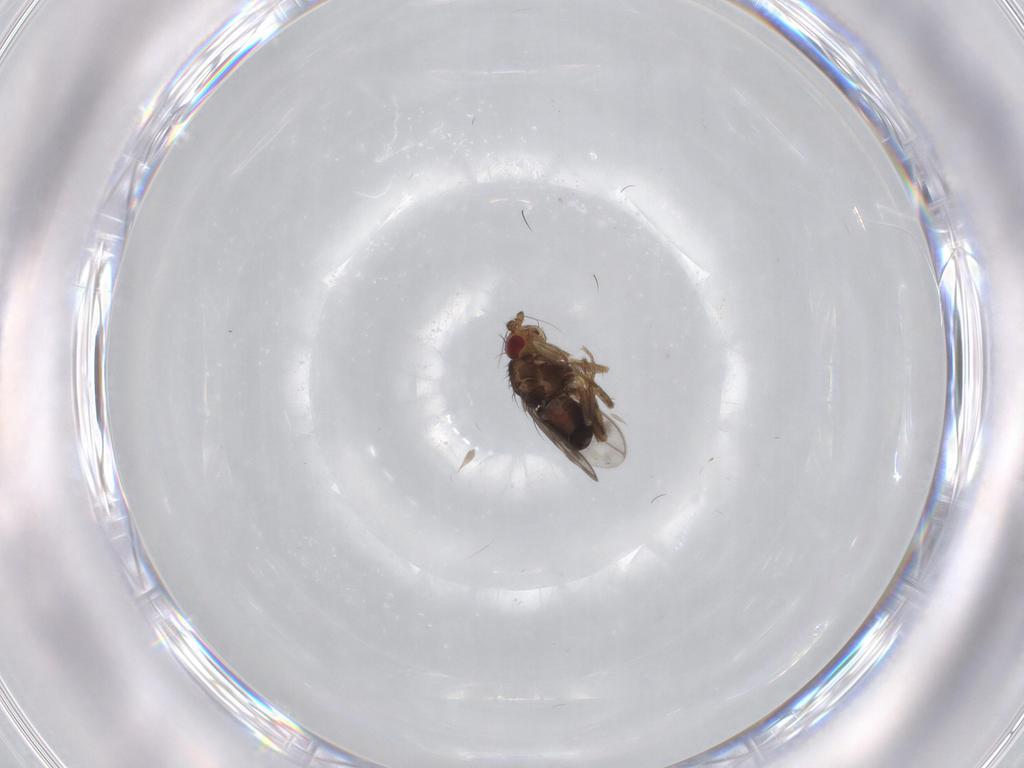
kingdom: Animalia
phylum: Arthropoda
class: Insecta
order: Diptera
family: Sphaeroceridae
